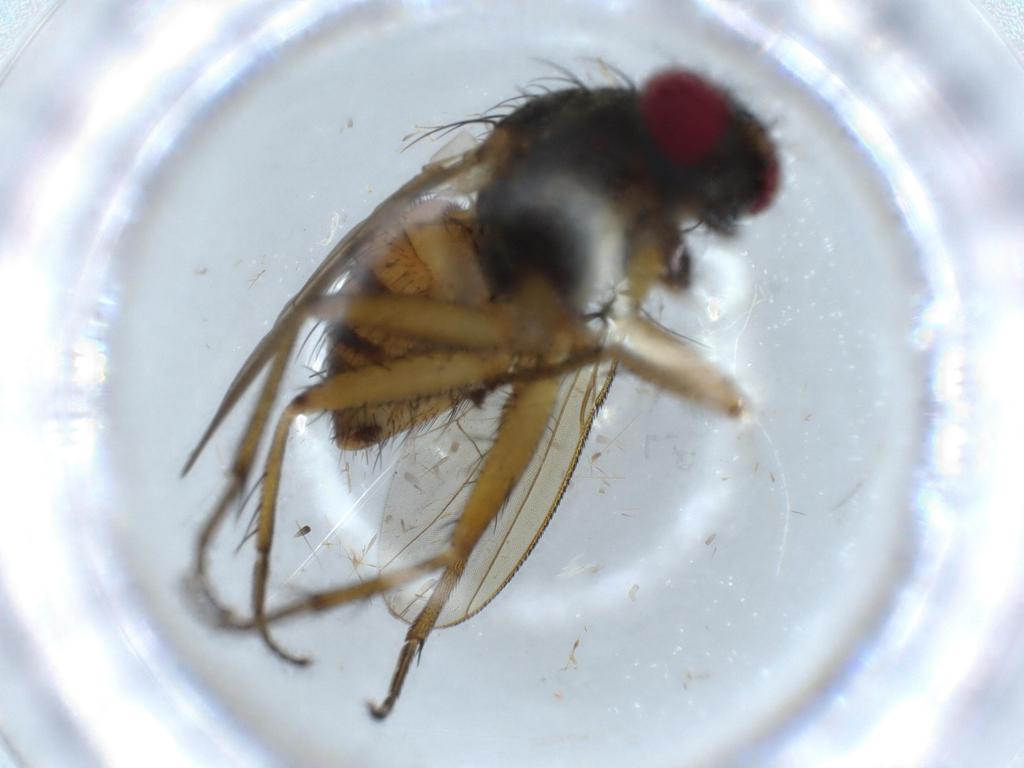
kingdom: Animalia
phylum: Arthropoda
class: Insecta
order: Diptera
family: Muscidae
